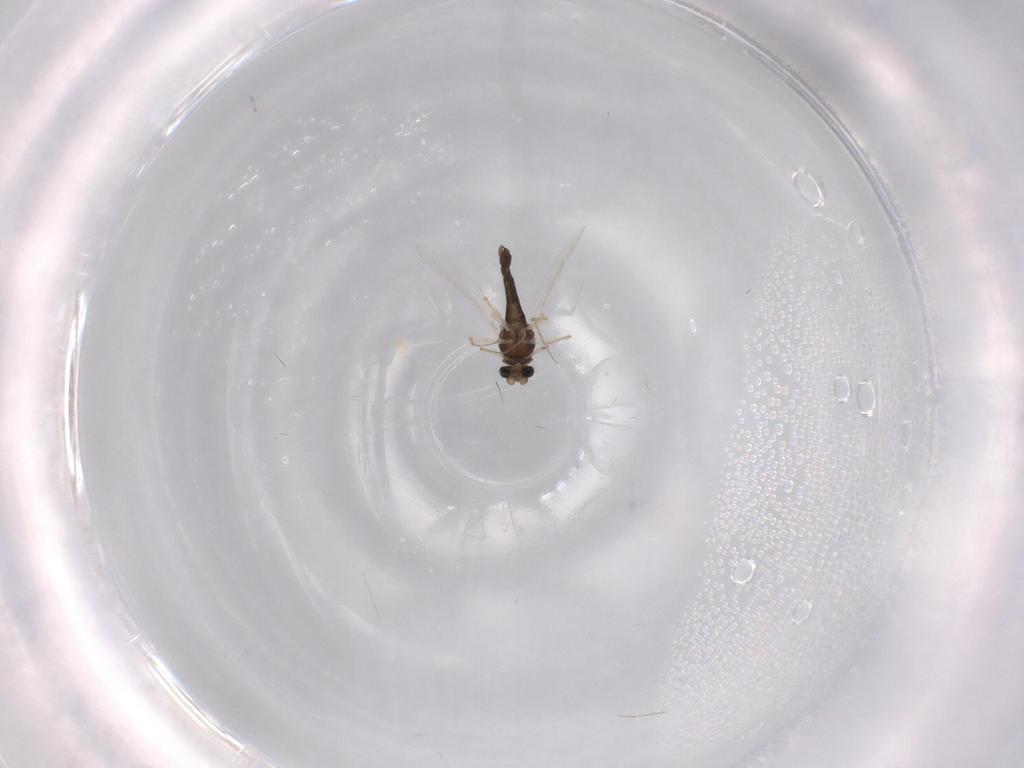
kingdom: Animalia
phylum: Arthropoda
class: Insecta
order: Diptera
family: Chironomidae
